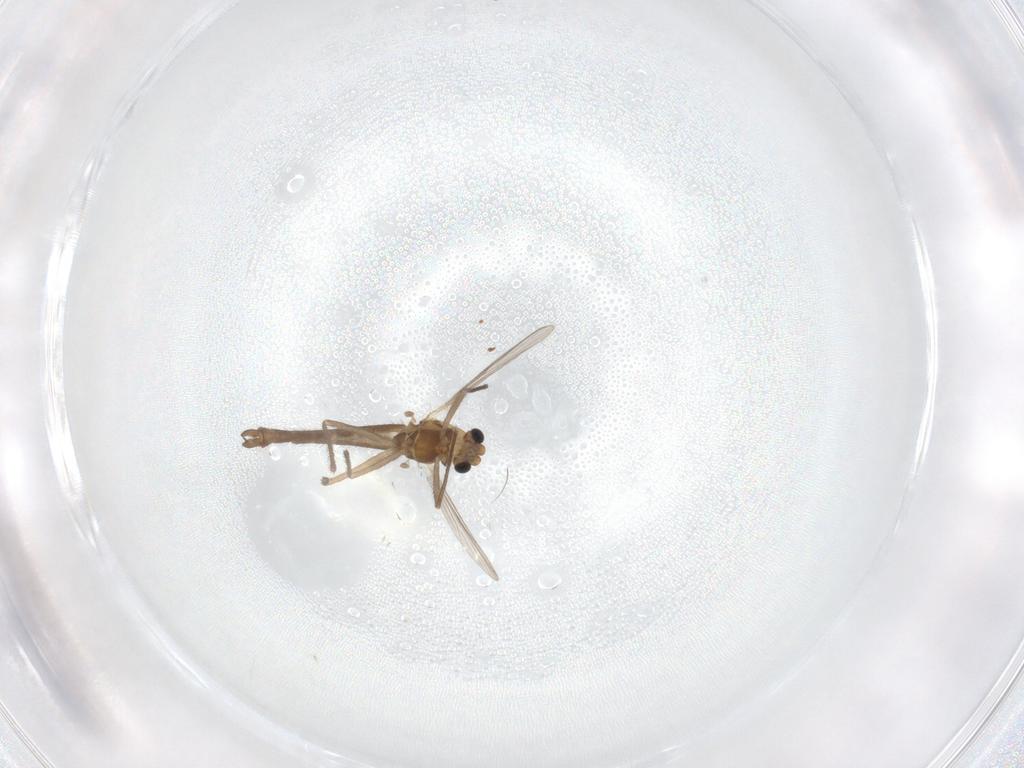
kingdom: Animalia
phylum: Arthropoda
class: Insecta
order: Diptera
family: Chironomidae
